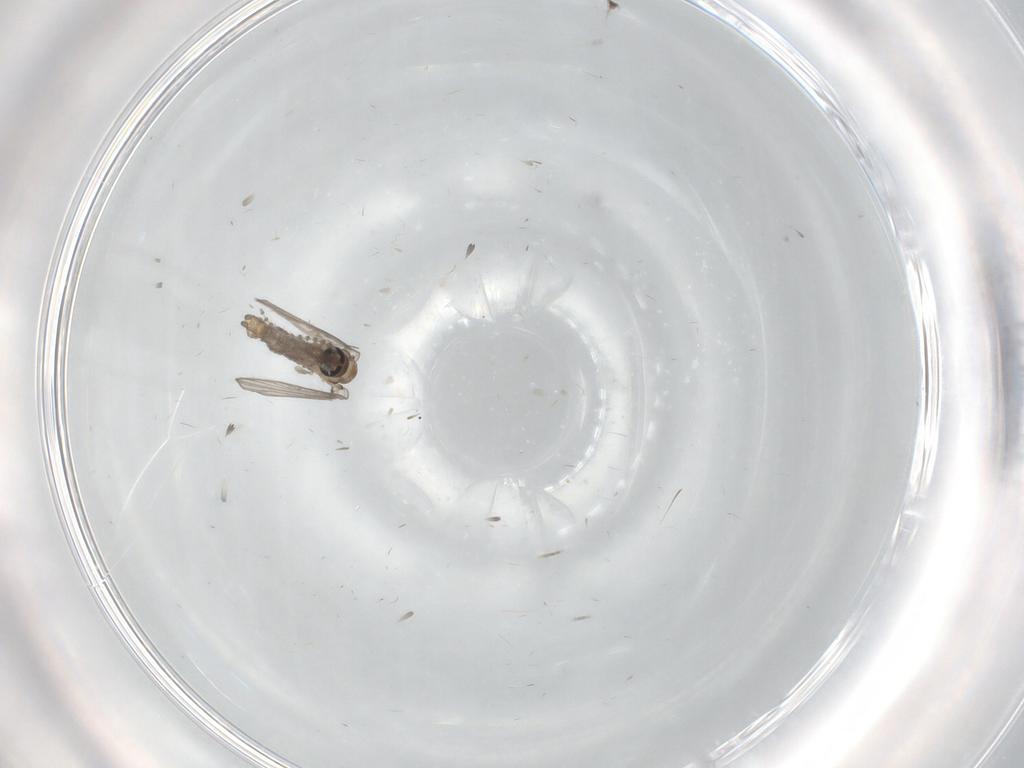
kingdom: Animalia
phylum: Arthropoda
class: Insecta
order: Diptera
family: Psychodidae
